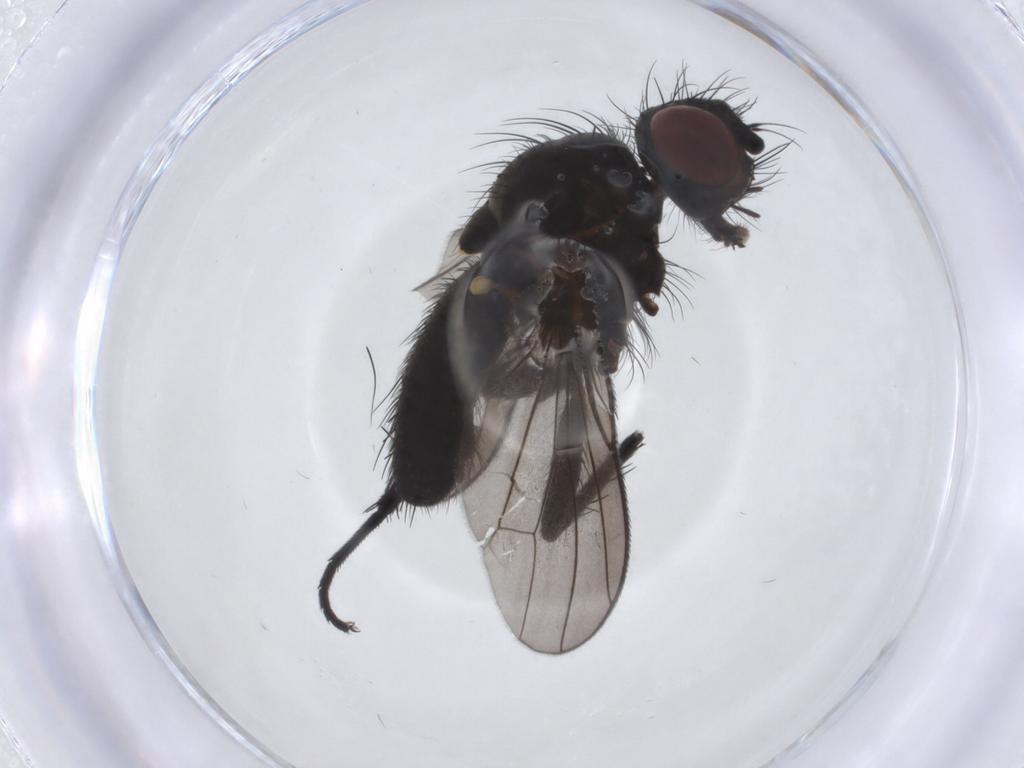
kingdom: Animalia
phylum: Arthropoda
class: Insecta
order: Diptera
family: Anthomyiidae
